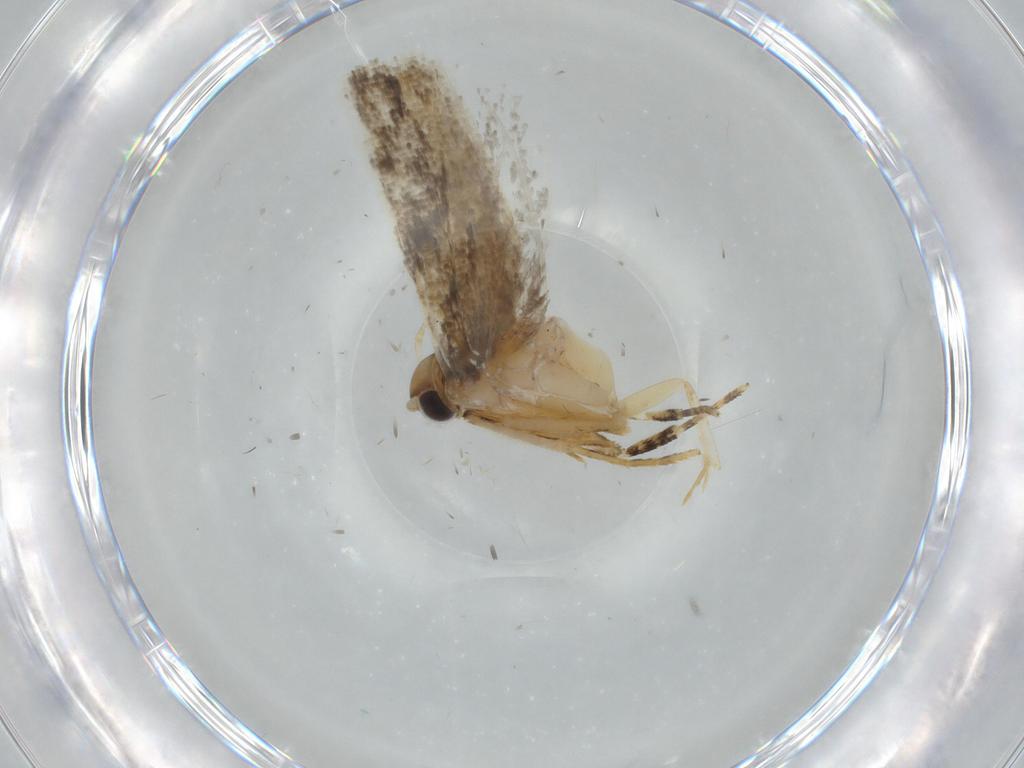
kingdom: Animalia
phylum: Arthropoda
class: Insecta
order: Lepidoptera
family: Gelechiidae
